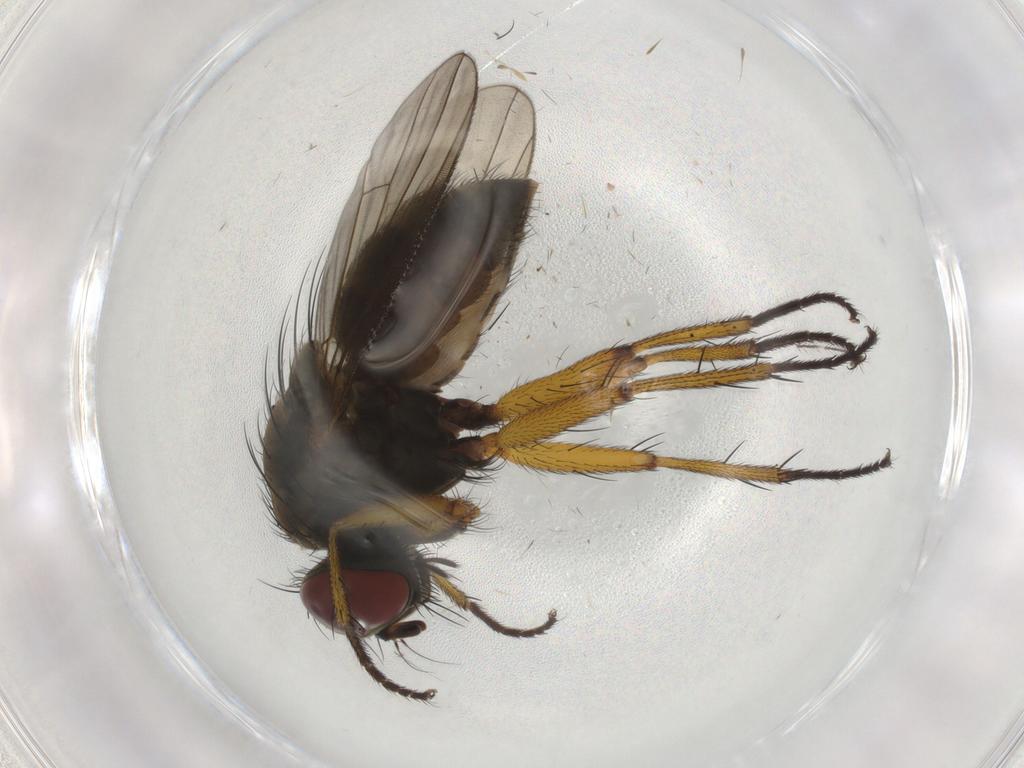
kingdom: Animalia
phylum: Arthropoda
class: Insecta
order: Diptera
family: Muscidae
